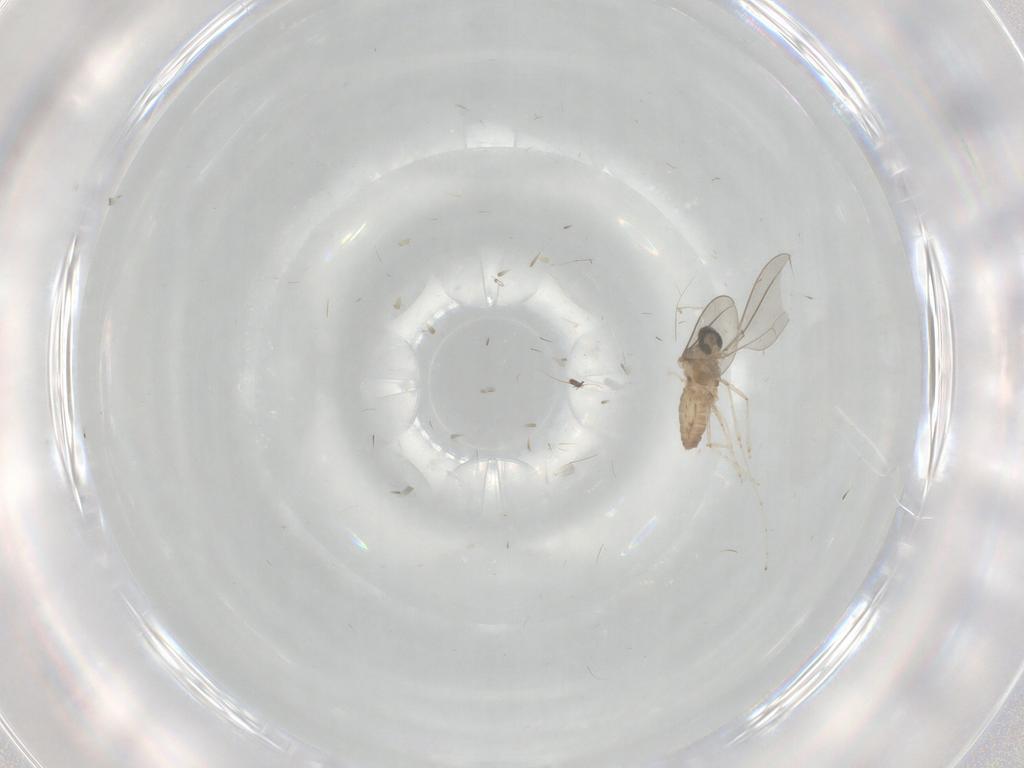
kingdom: Animalia
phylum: Arthropoda
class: Insecta
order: Diptera
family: Cecidomyiidae
